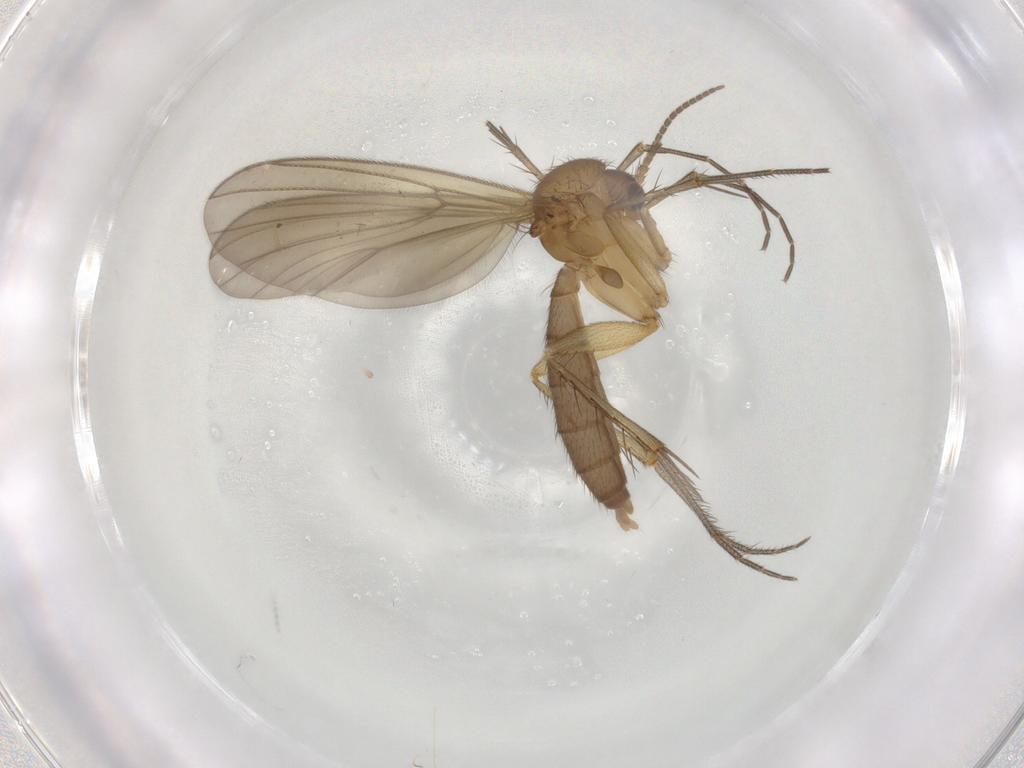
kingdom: Animalia
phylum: Arthropoda
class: Insecta
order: Diptera
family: Mycetophilidae
